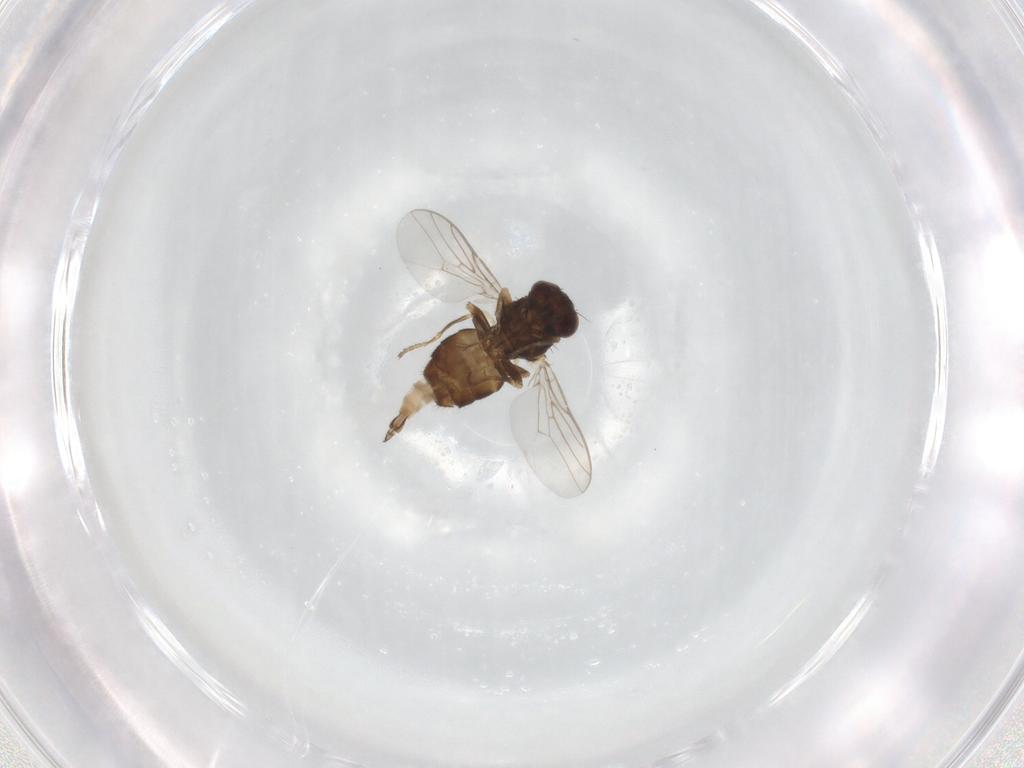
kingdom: Animalia
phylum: Arthropoda
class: Insecta
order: Diptera
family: Chloropidae
